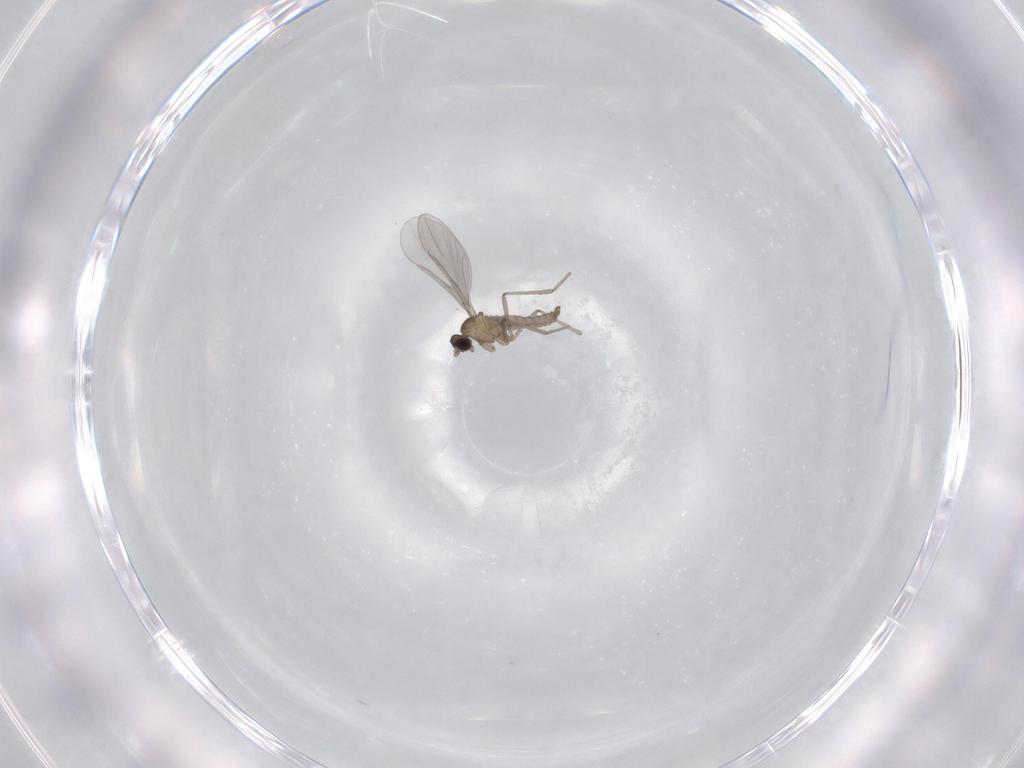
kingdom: Animalia
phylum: Arthropoda
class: Insecta
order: Diptera
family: Cecidomyiidae
